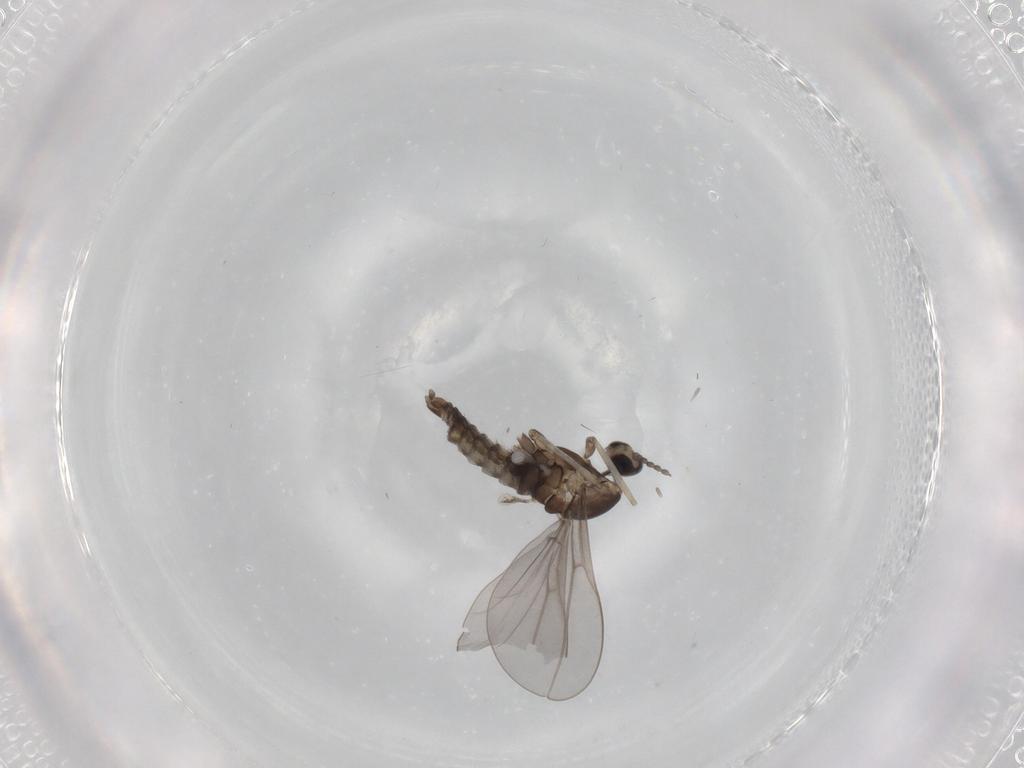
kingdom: Animalia
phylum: Arthropoda
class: Insecta
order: Diptera
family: Cecidomyiidae
